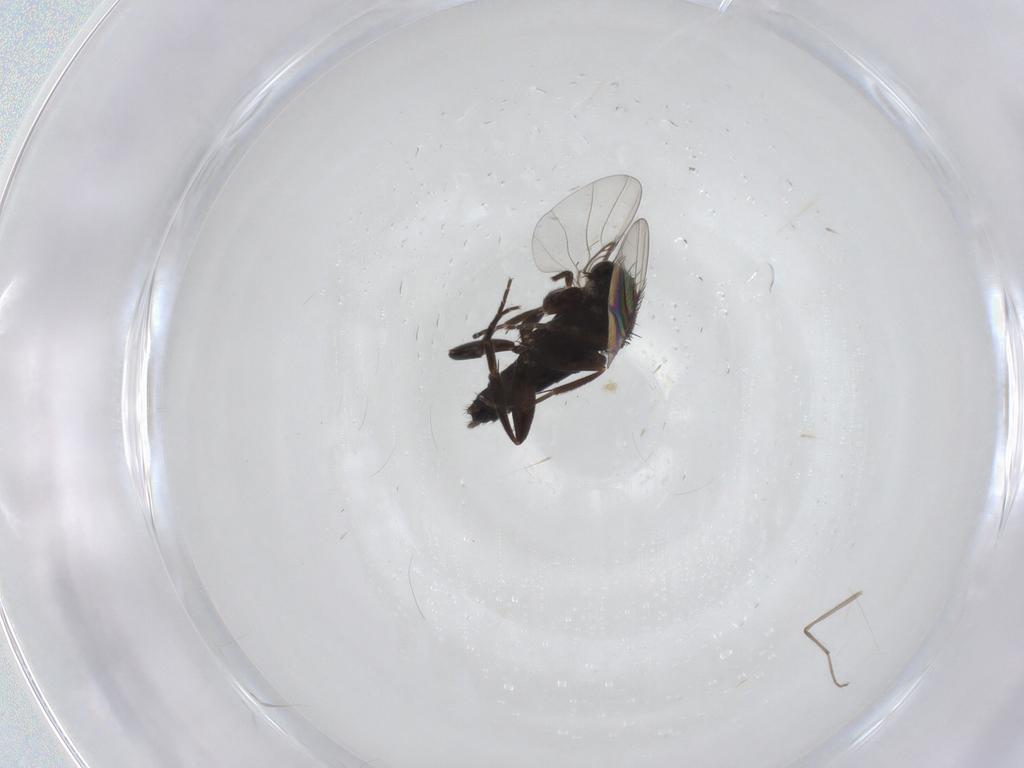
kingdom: Animalia
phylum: Arthropoda
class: Insecta
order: Diptera
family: Chironomidae
